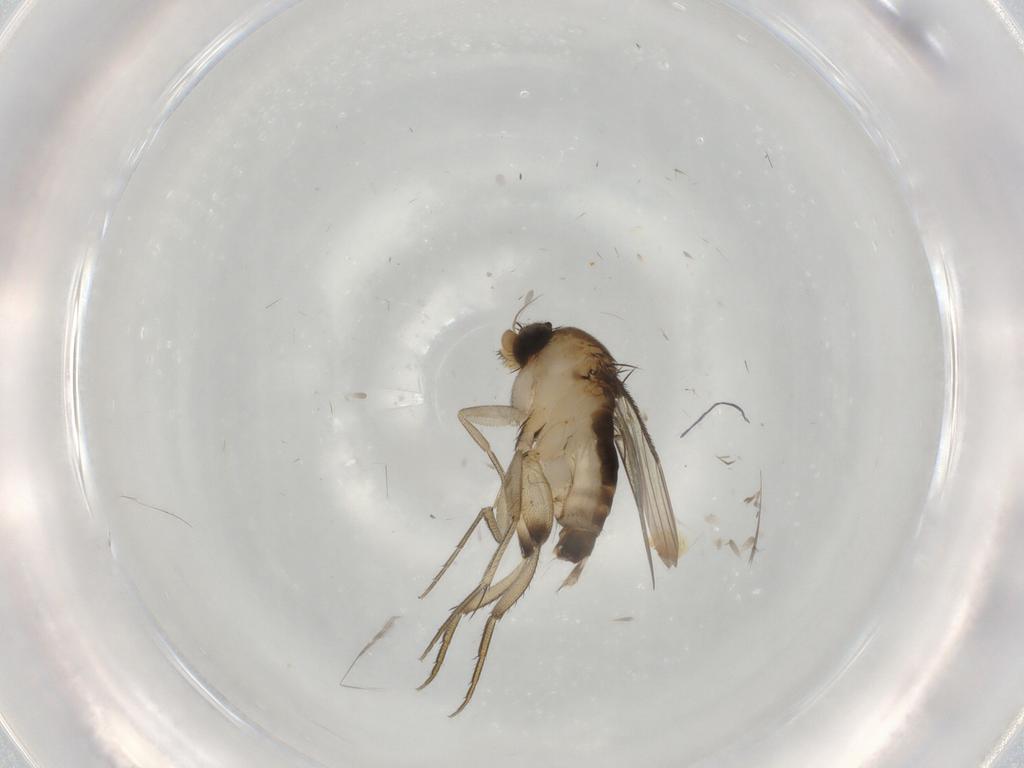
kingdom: Animalia
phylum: Arthropoda
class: Insecta
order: Diptera
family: Phoridae
